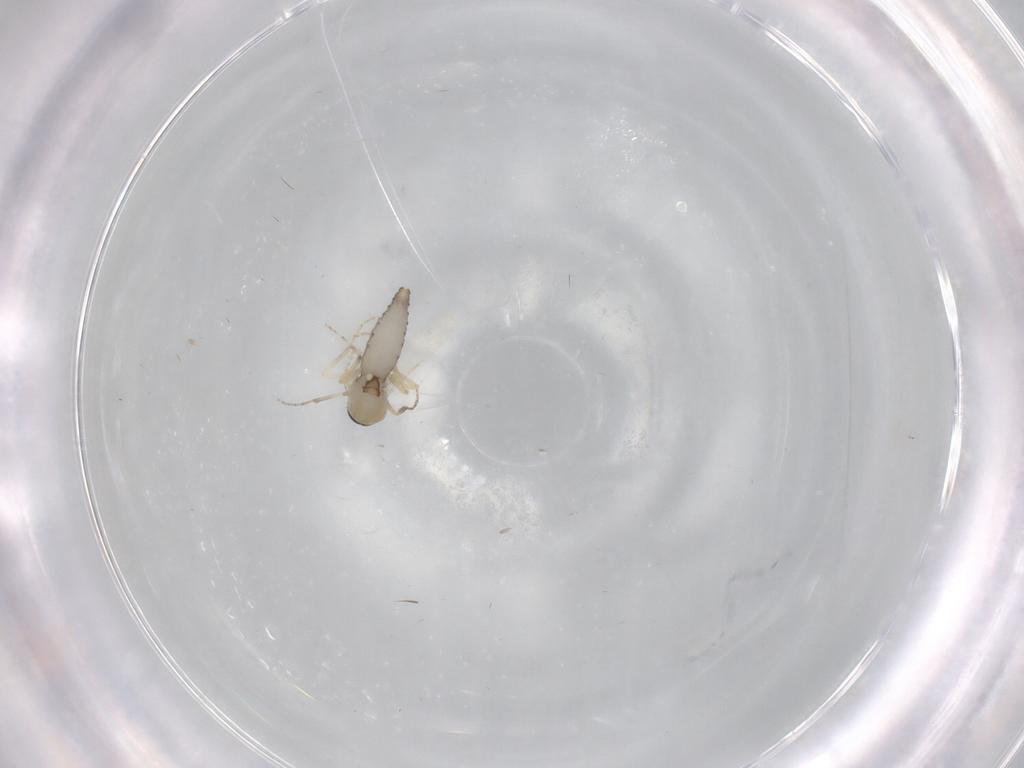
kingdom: Animalia
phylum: Arthropoda
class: Insecta
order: Diptera
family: Ceratopogonidae
